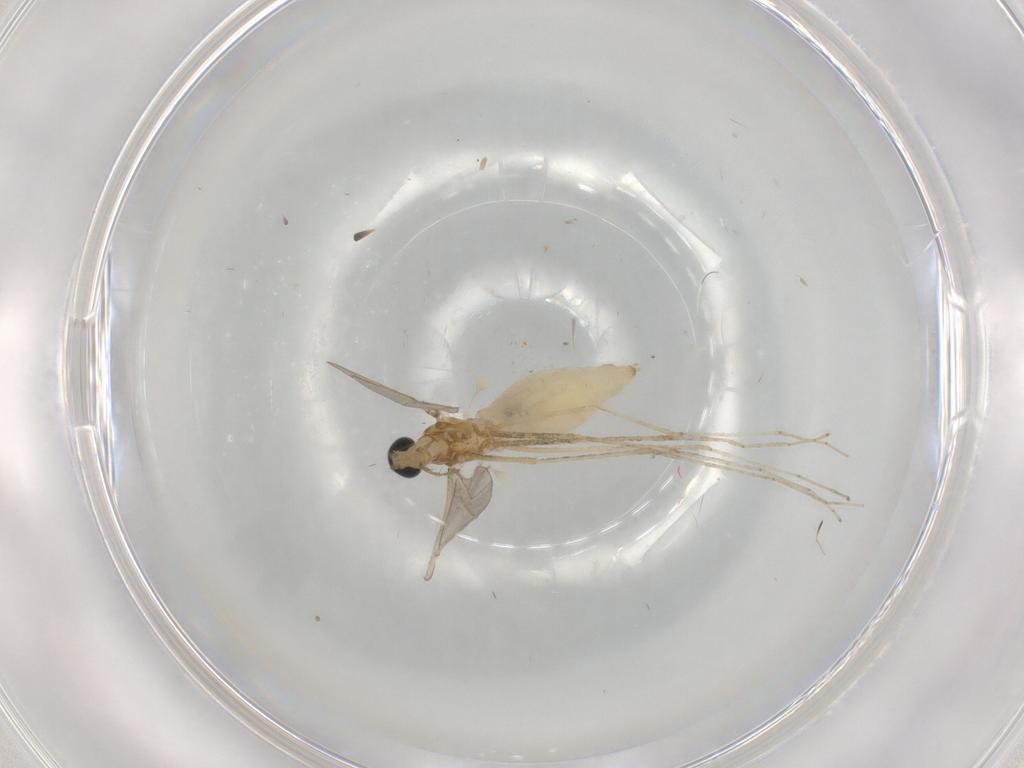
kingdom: Animalia
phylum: Arthropoda
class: Insecta
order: Diptera
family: Cecidomyiidae
